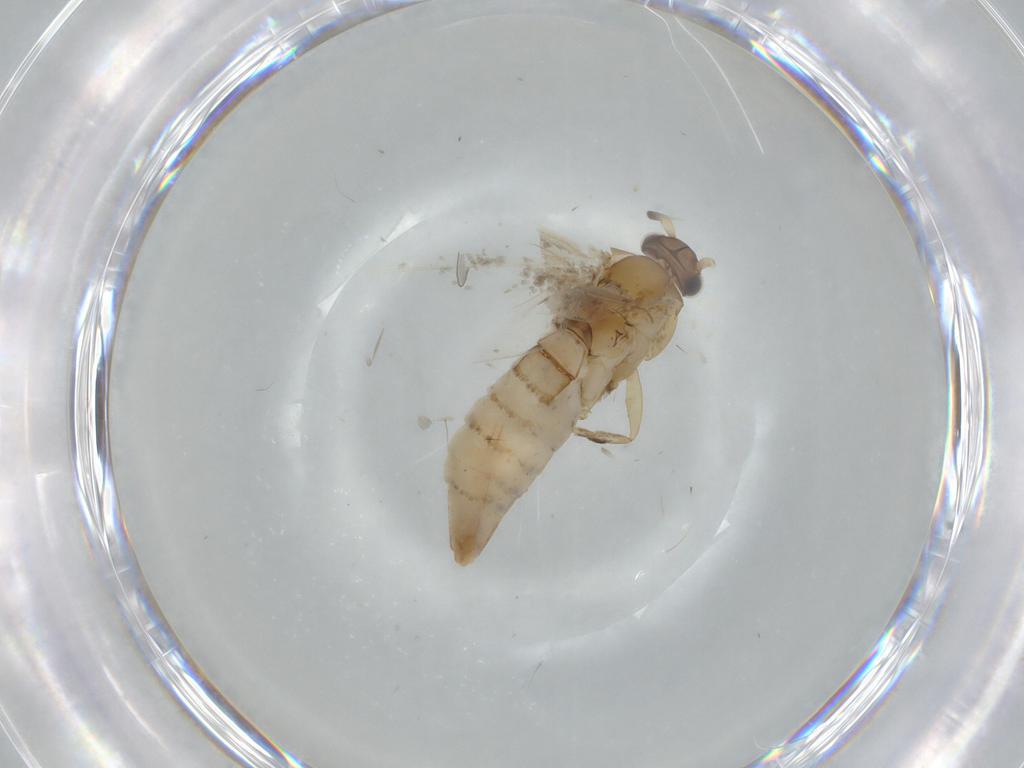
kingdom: Animalia
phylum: Arthropoda
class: Insecta
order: Lepidoptera
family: Tineidae
